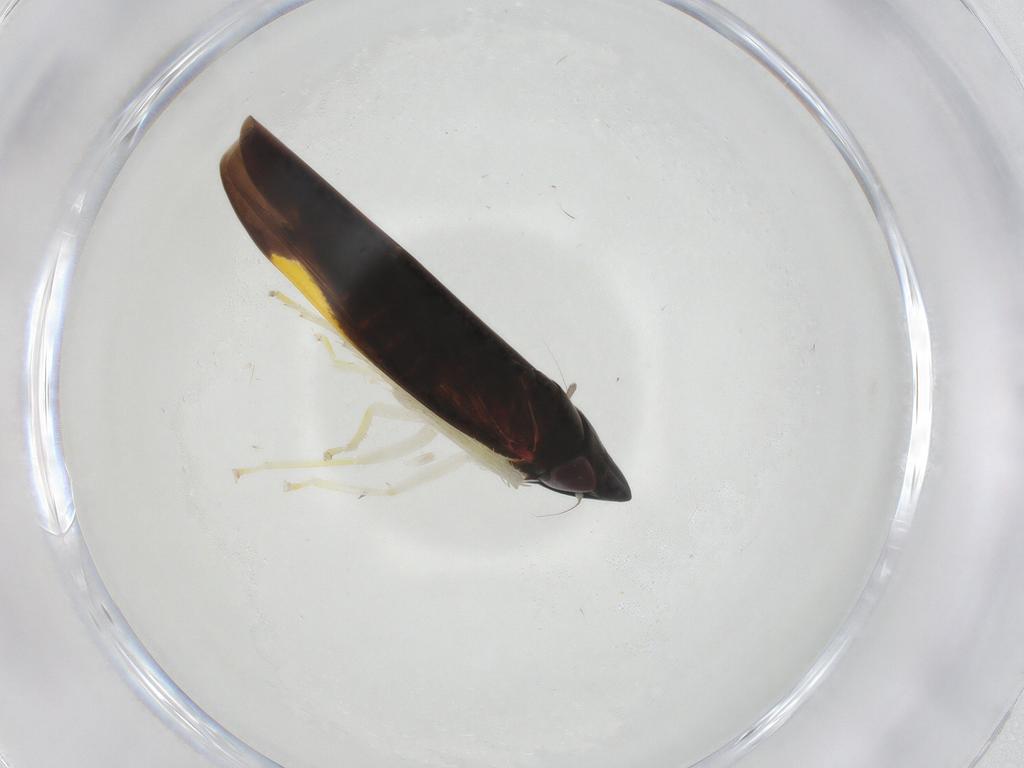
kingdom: Animalia
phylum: Arthropoda
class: Insecta
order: Hemiptera
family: Cicadellidae
